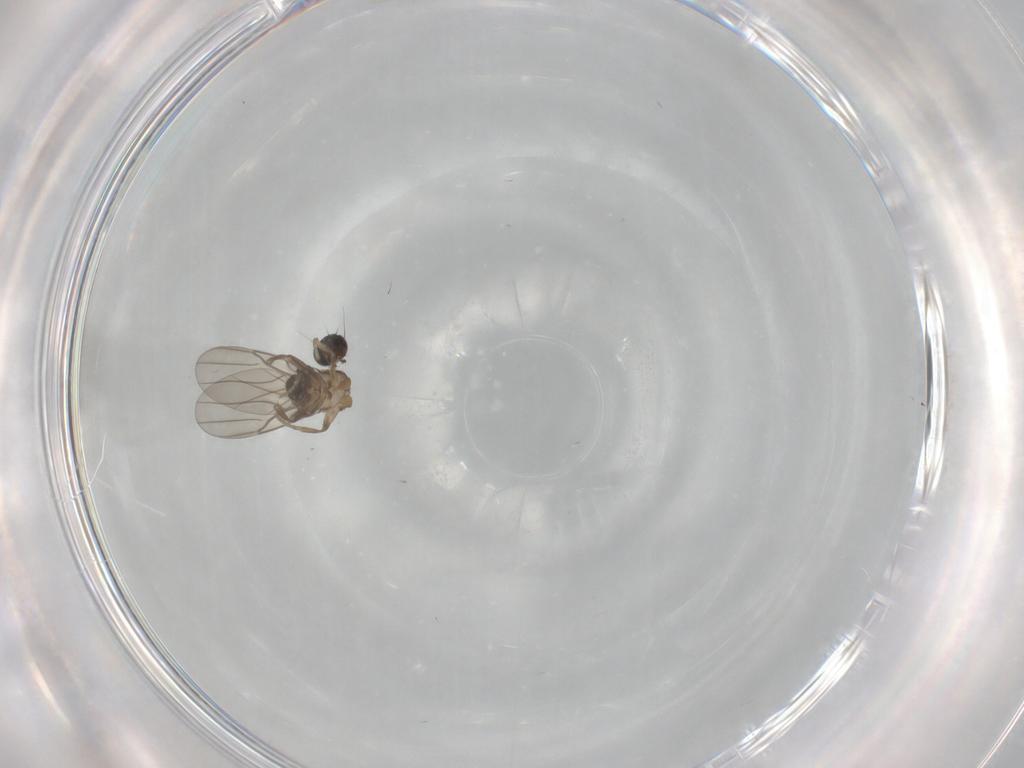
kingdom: Animalia
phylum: Arthropoda
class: Insecta
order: Diptera
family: Phoridae
